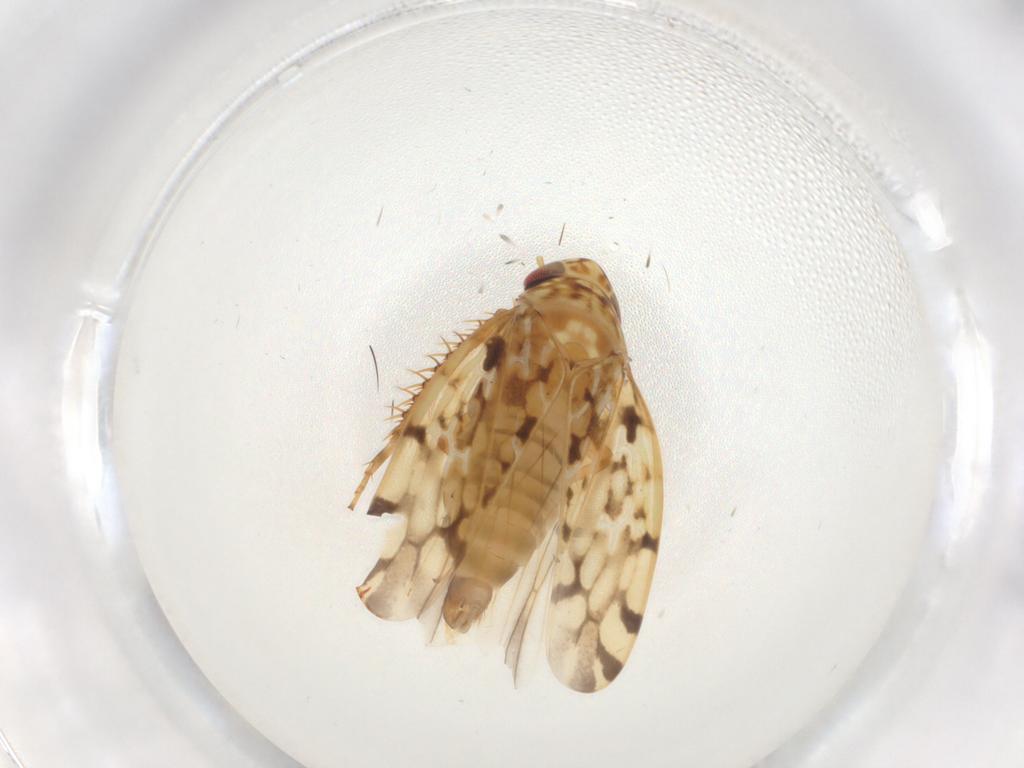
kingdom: Animalia
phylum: Arthropoda
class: Insecta
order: Hemiptera
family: Cicadellidae
